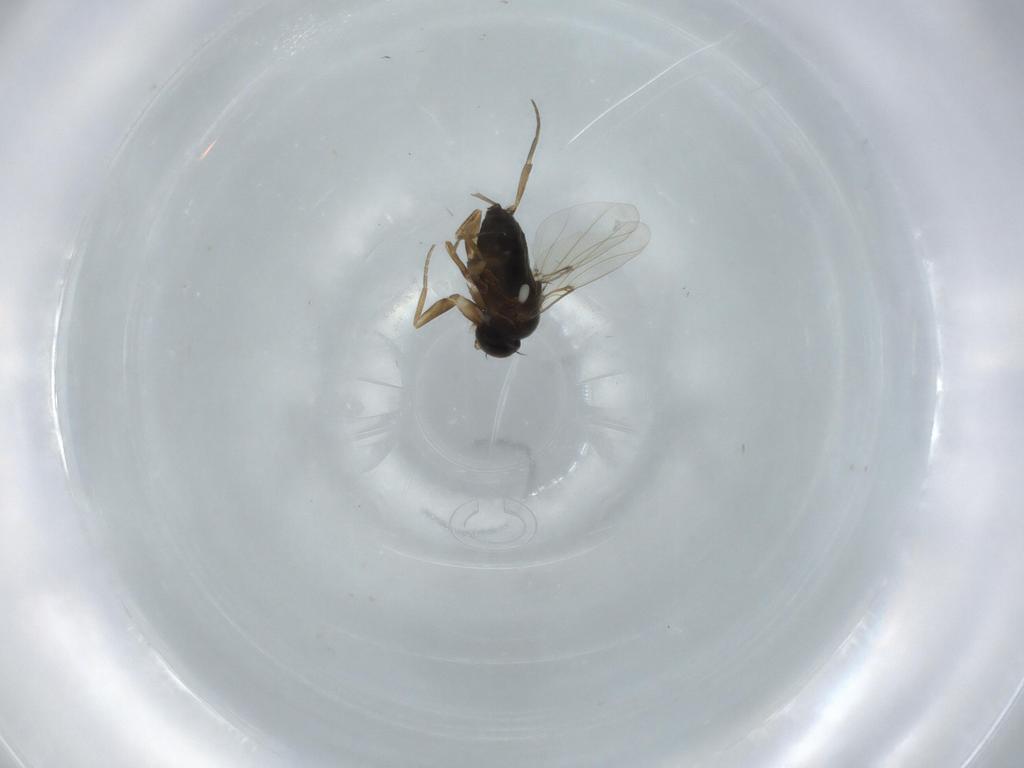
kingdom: Animalia
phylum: Arthropoda
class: Insecta
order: Diptera
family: Phoridae
